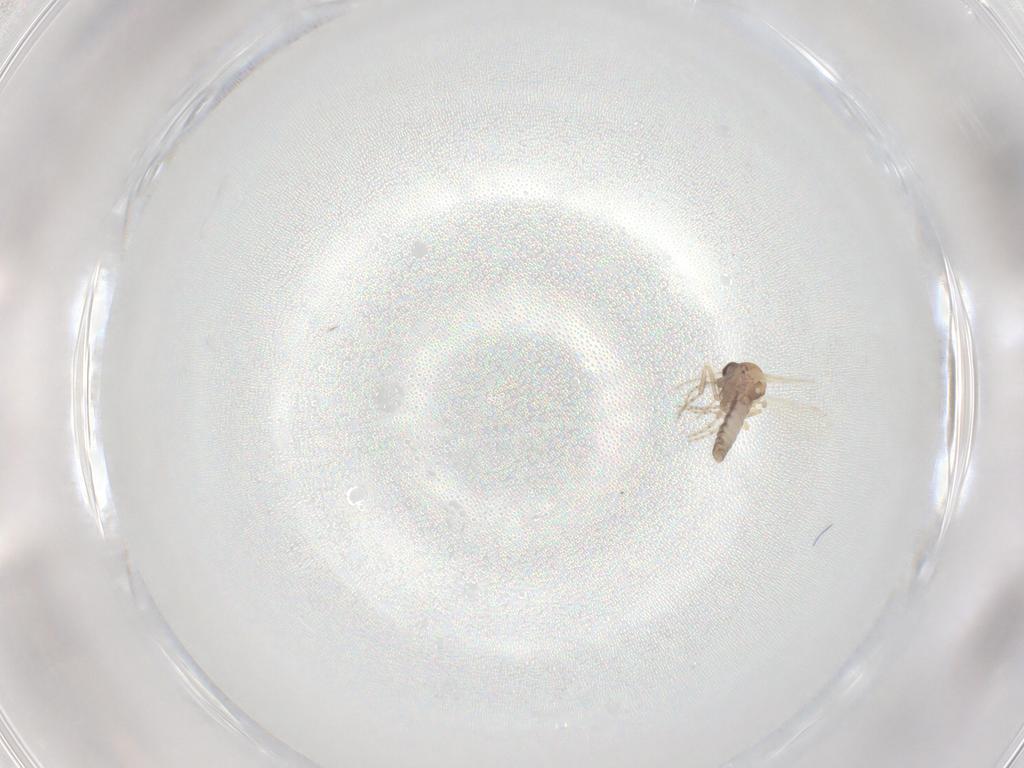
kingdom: Animalia
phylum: Arthropoda
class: Insecta
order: Diptera
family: Ceratopogonidae
